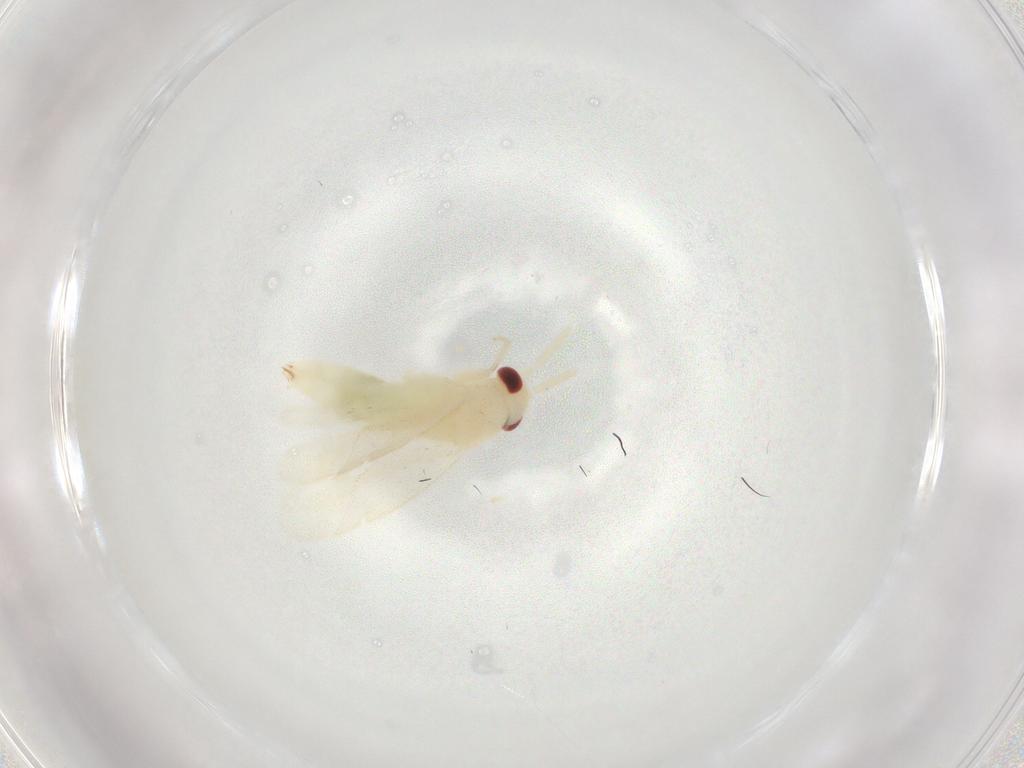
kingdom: Animalia
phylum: Arthropoda
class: Insecta
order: Hemiptera
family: Miridae
